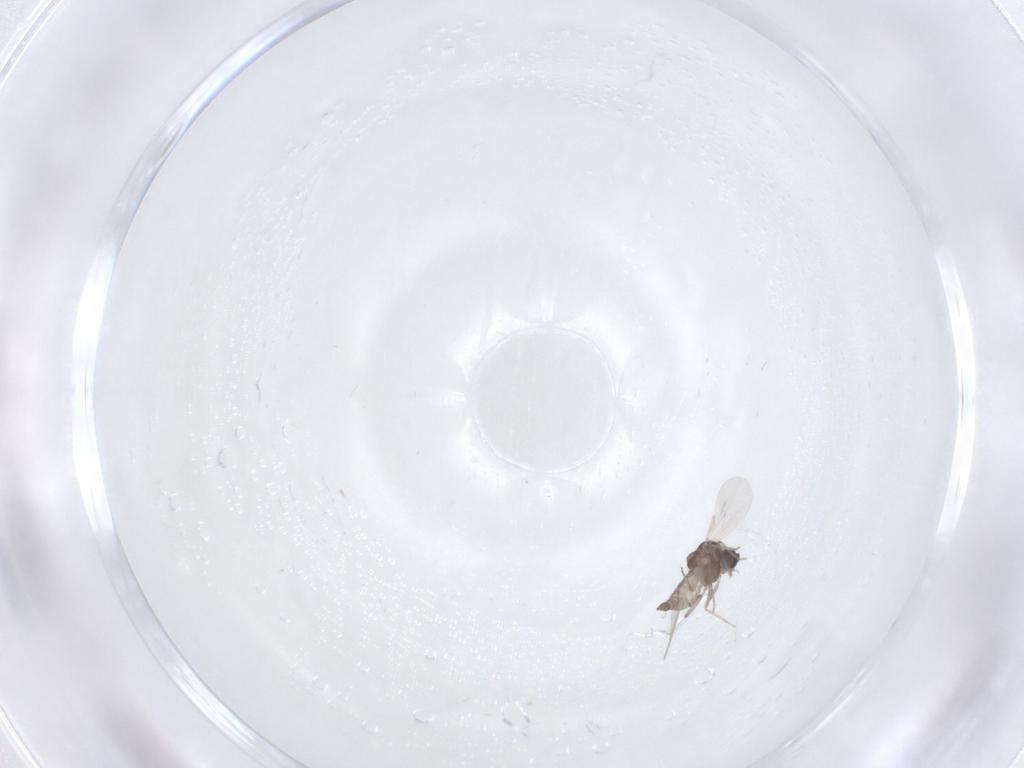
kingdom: Animalia
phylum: Arthropoda
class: Insecta
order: Diptera
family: Ceratopogonidae
